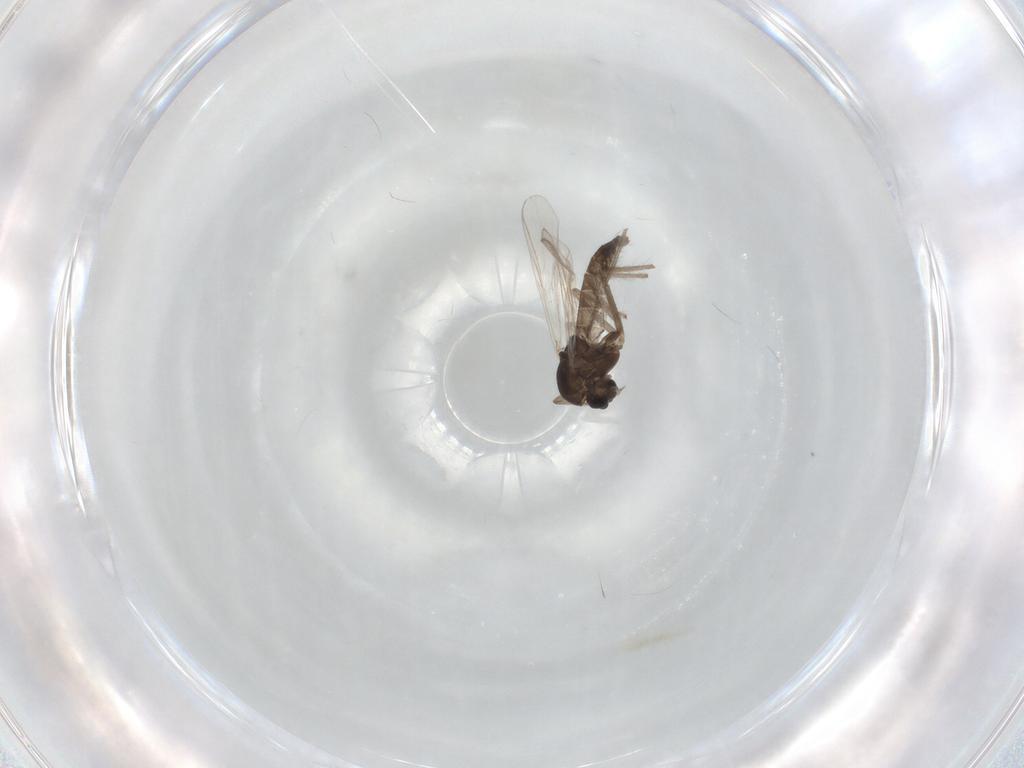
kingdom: Animalia
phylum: Arthropoda
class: Insecta
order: Diptera
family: Chironomidae
